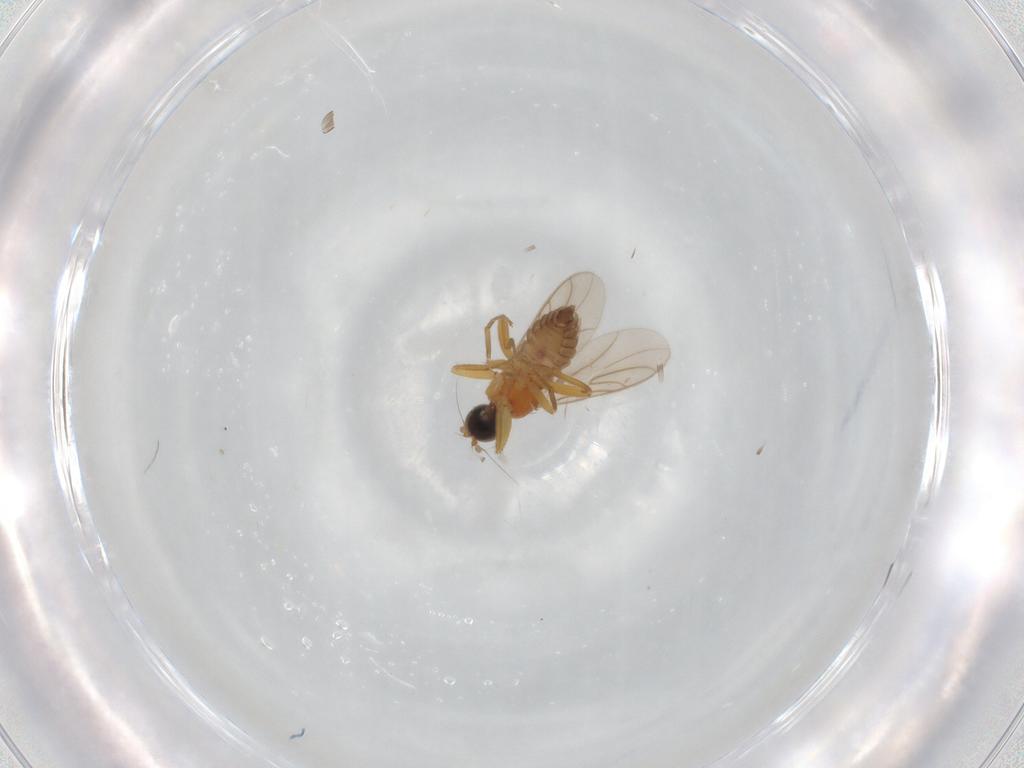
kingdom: Animalia
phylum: Arthropoda
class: Insecta
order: Diptera
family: Hybotidae
